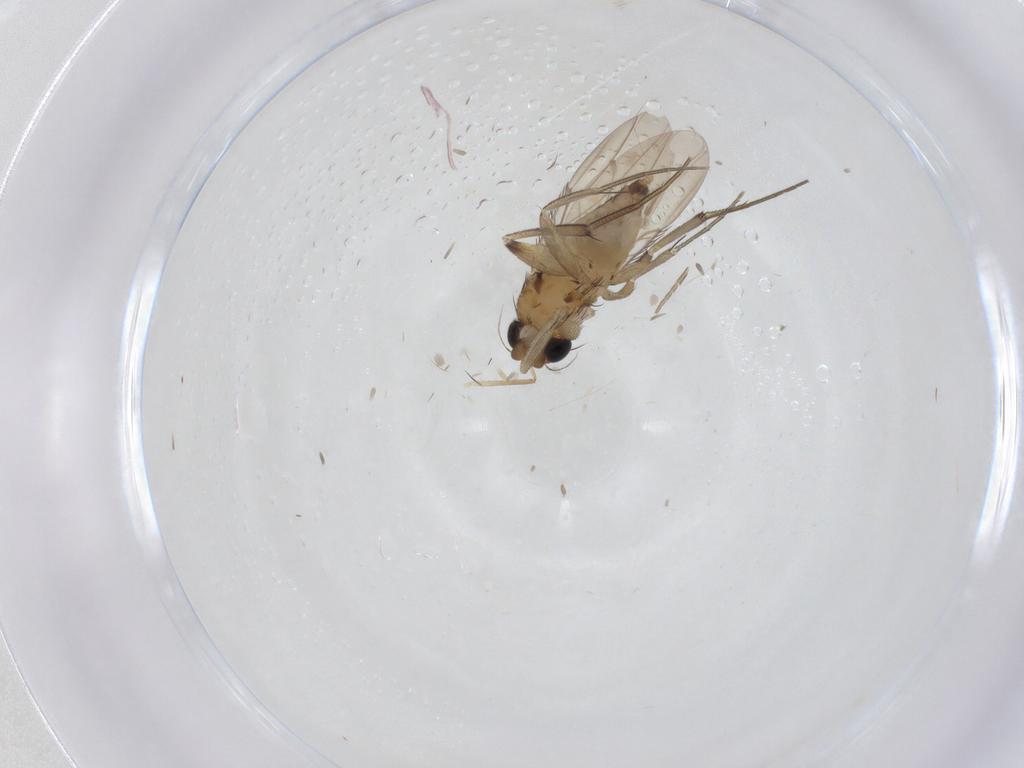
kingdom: Animalia
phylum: Arthropoda
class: Insecta
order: Diptera
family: Phoridae
